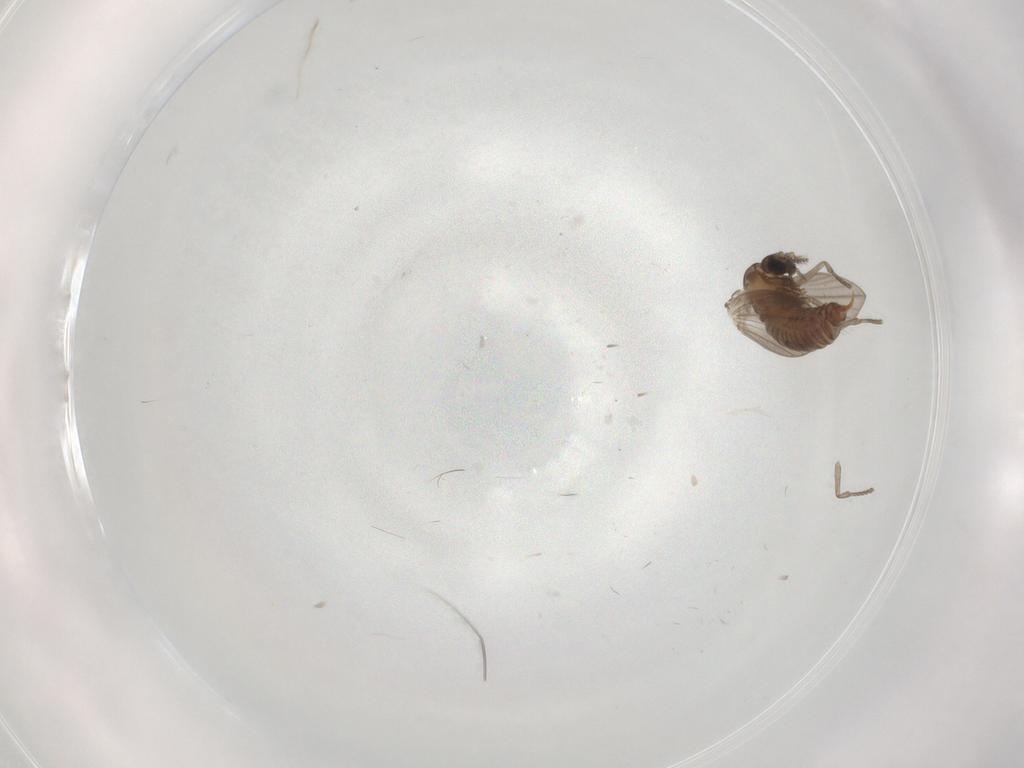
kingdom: Animalia
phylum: Arthropoda
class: Insecta
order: Diptera
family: Psychodidae
